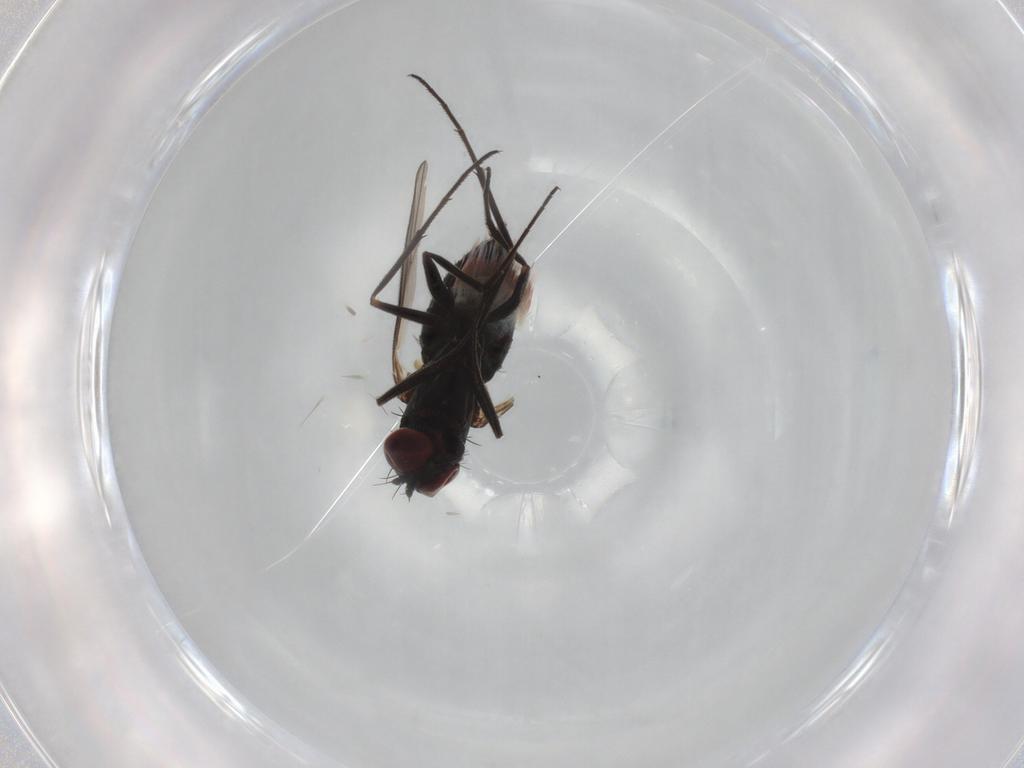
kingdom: Animalia
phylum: Arthropoda
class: Insecta
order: Diptera
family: Dolichopodidae
